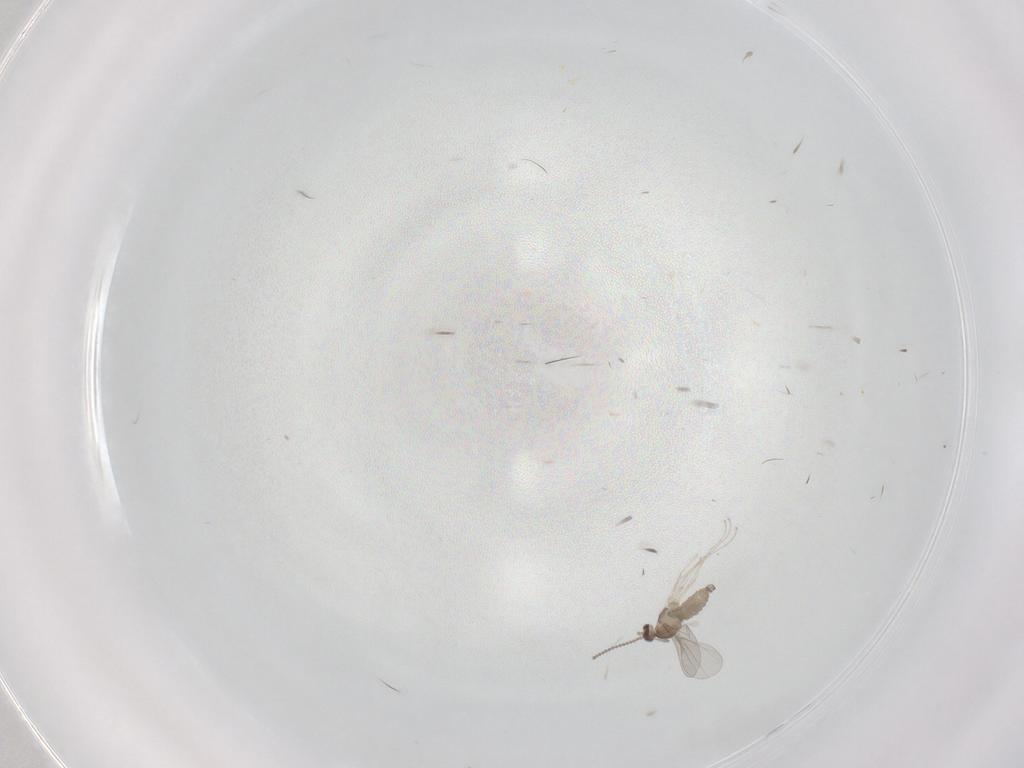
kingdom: Animalia
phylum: Arthropoda
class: Insecta
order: Diptera
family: Cecidomyiidae
